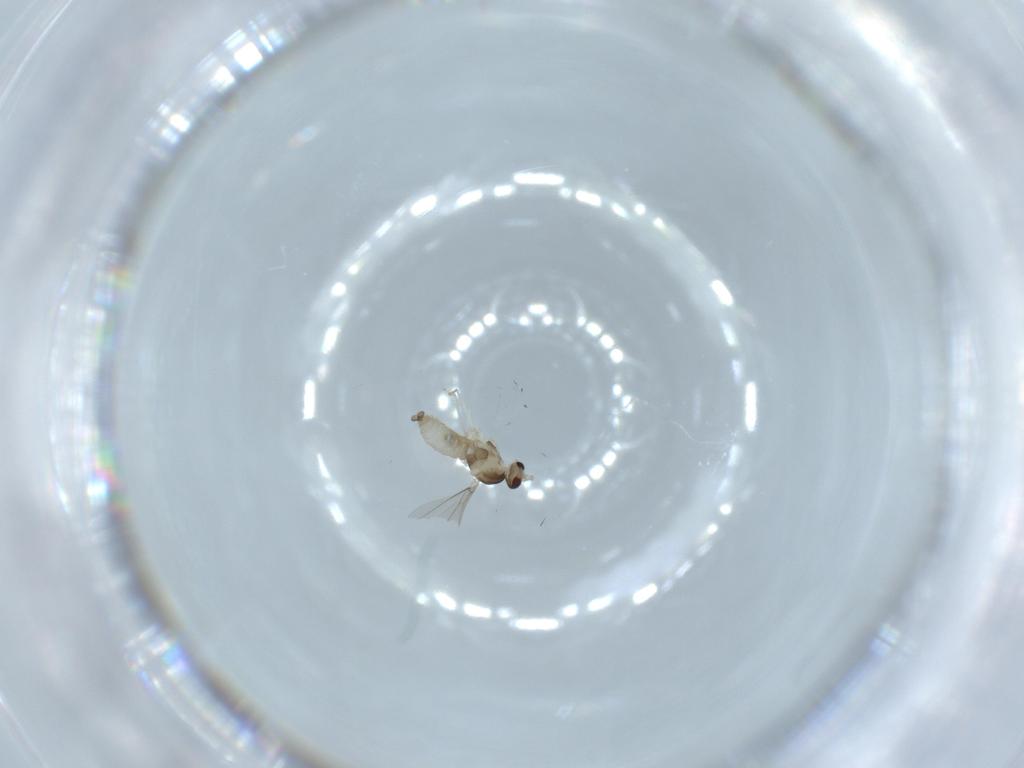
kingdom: Animalia
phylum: Arthropoda
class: Insecta
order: Diptera
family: Cecidomyiidae
